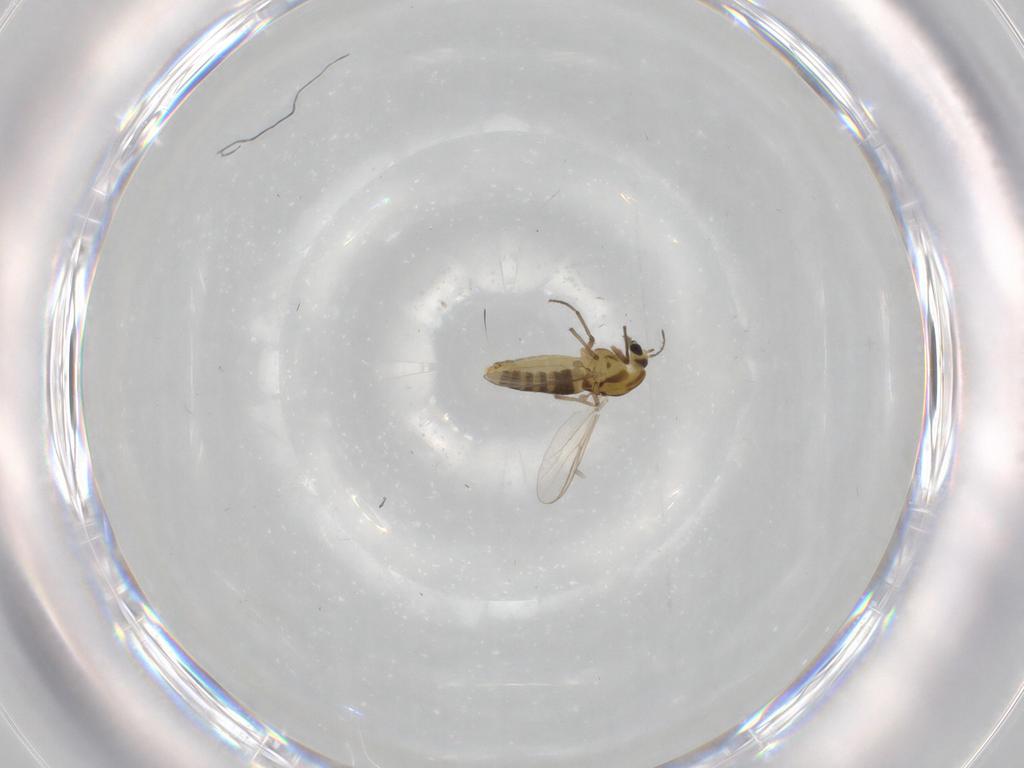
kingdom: Animalia
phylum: Arthropoda
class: Insecta
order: Diptera
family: Chironomidae
